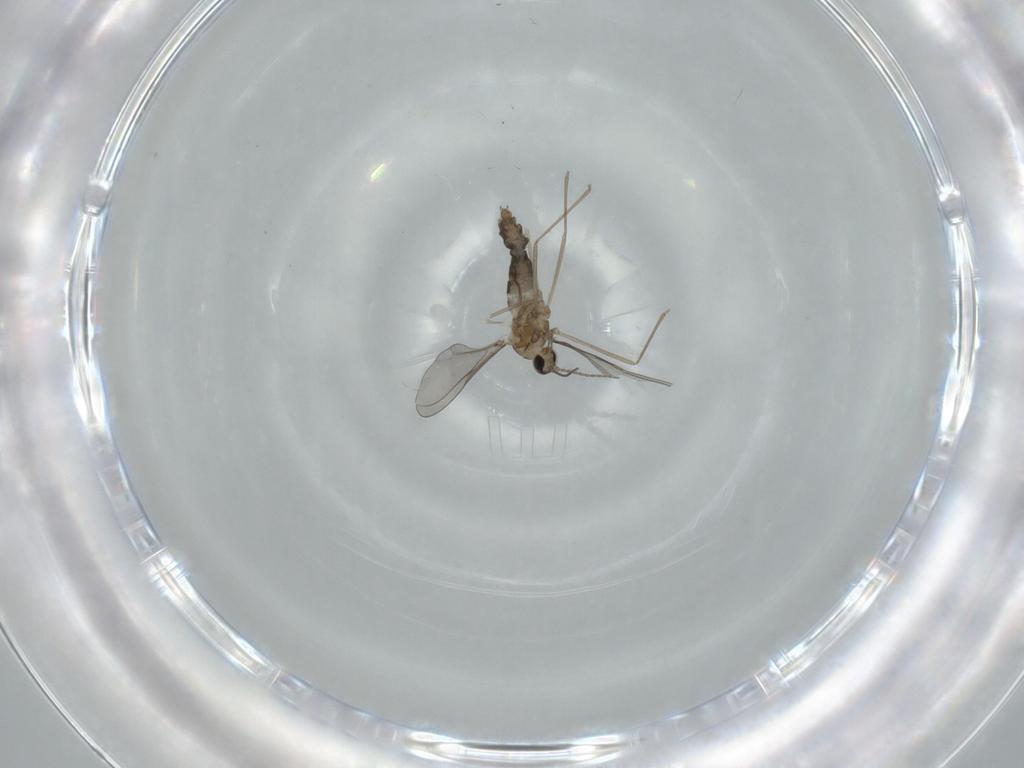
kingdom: Animalia
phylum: Arthropoda
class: Insecta
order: Diptera
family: Cecidomyiidae
